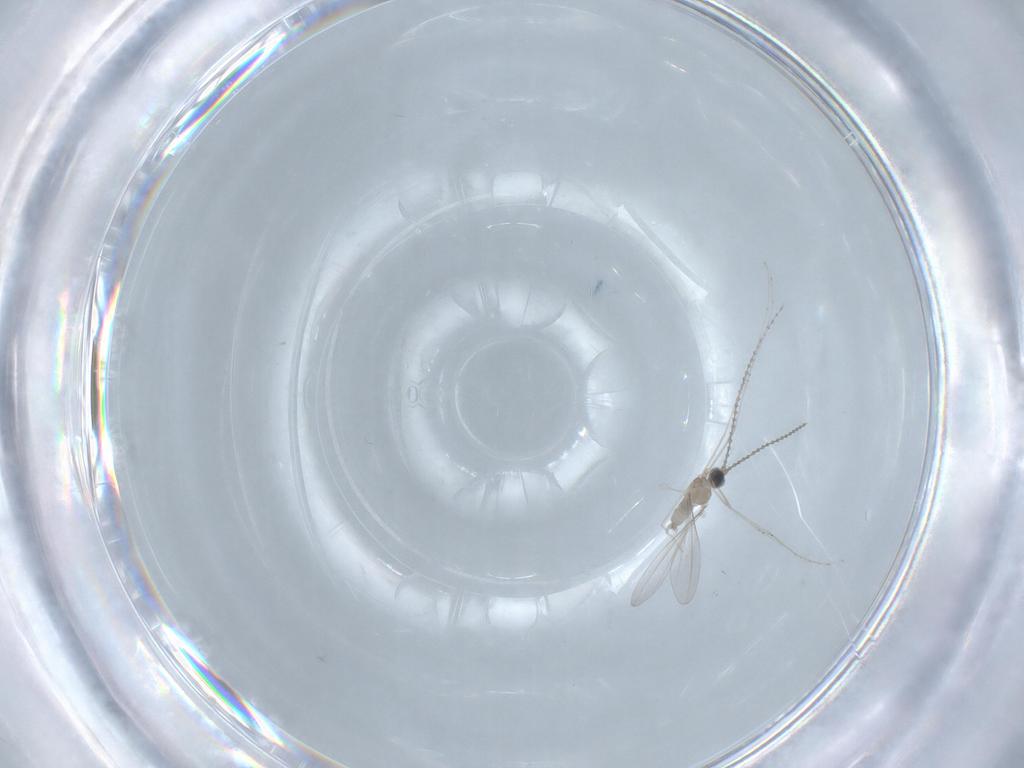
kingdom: Animalia
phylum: Arthropoda
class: Insecta
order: Diptera
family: Cecidomyiidae
